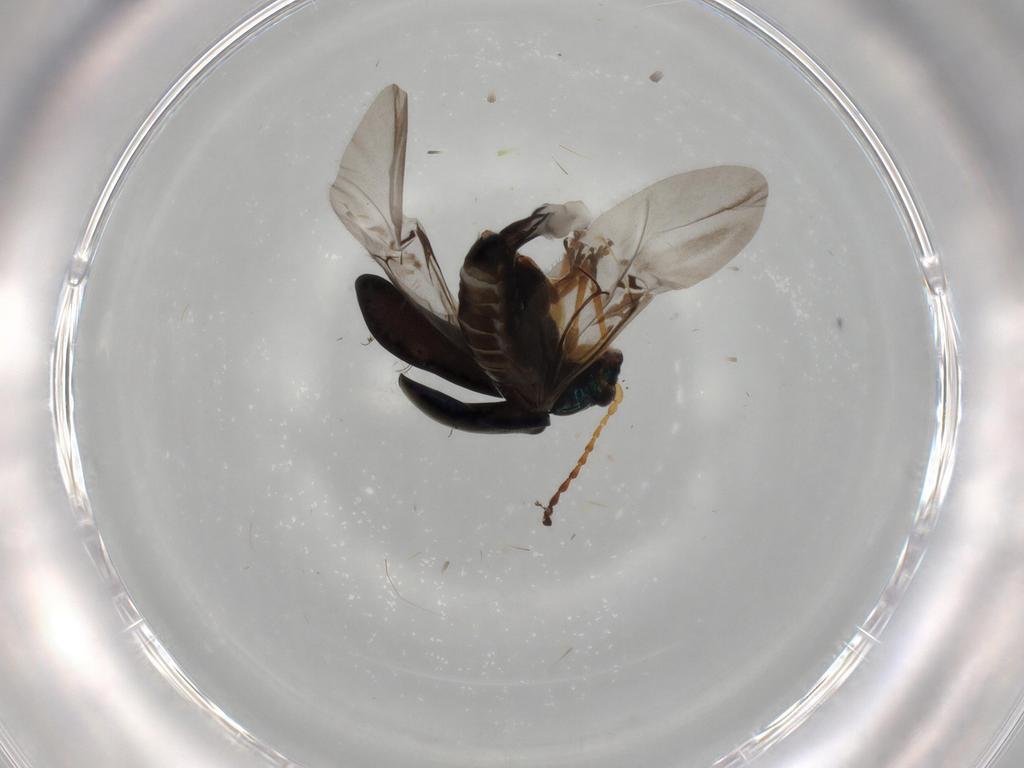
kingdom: Animalia
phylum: Arthropoda
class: Insecta
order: Coleoptera
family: Chrysomelidae
